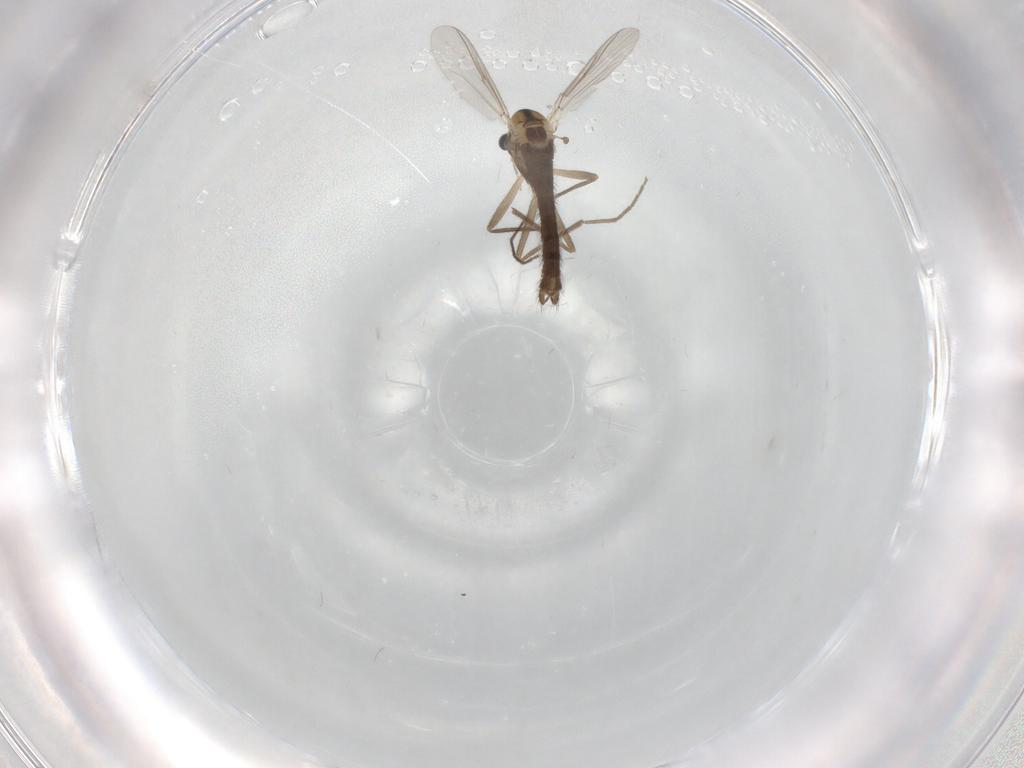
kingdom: Animalia
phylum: Arthropoda
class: Insecta
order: Diptera
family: Chironomidae
